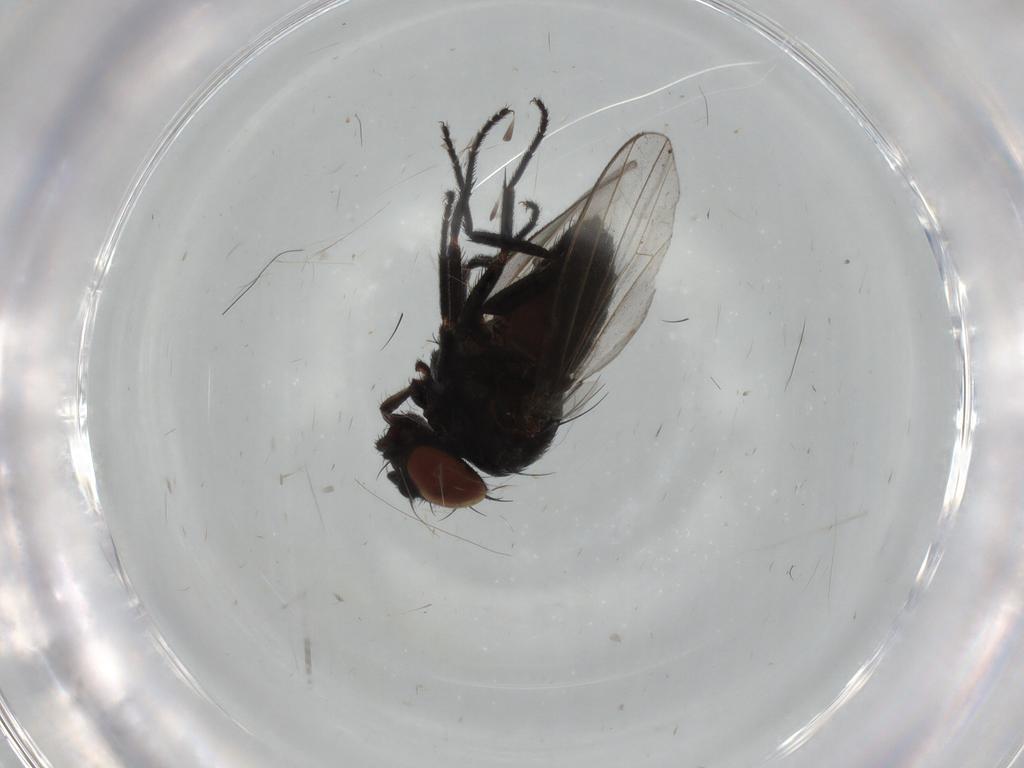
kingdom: Animalia
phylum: Arthropoda
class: Insecta
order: Diptera
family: Milichiidae
